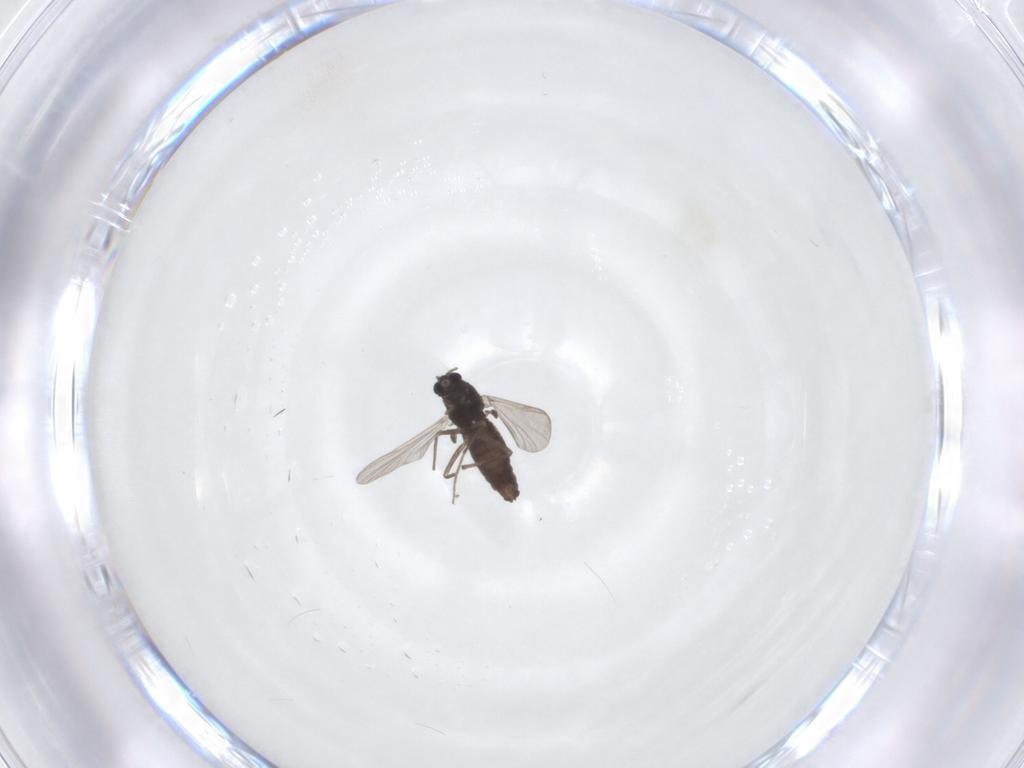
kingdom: Animalia
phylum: Arthropoda
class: Insecta
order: Diptera
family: Chironomidae
